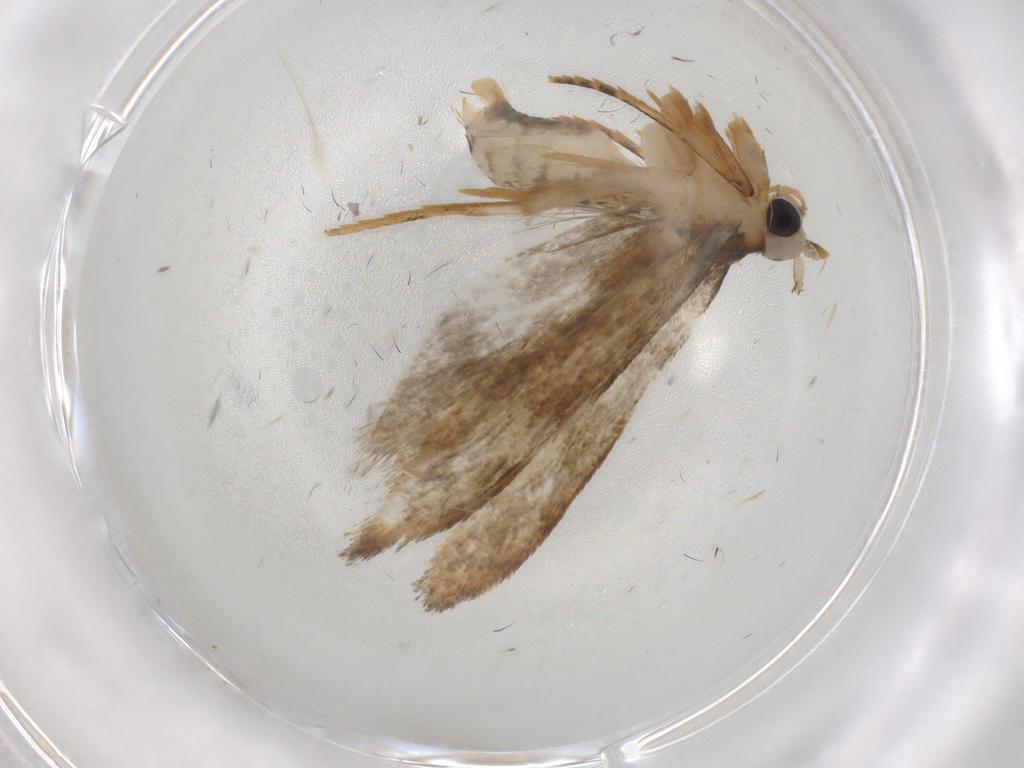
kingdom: Animalia
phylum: Arthropoda
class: Insecta
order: Lepidoptera
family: Tineidae
